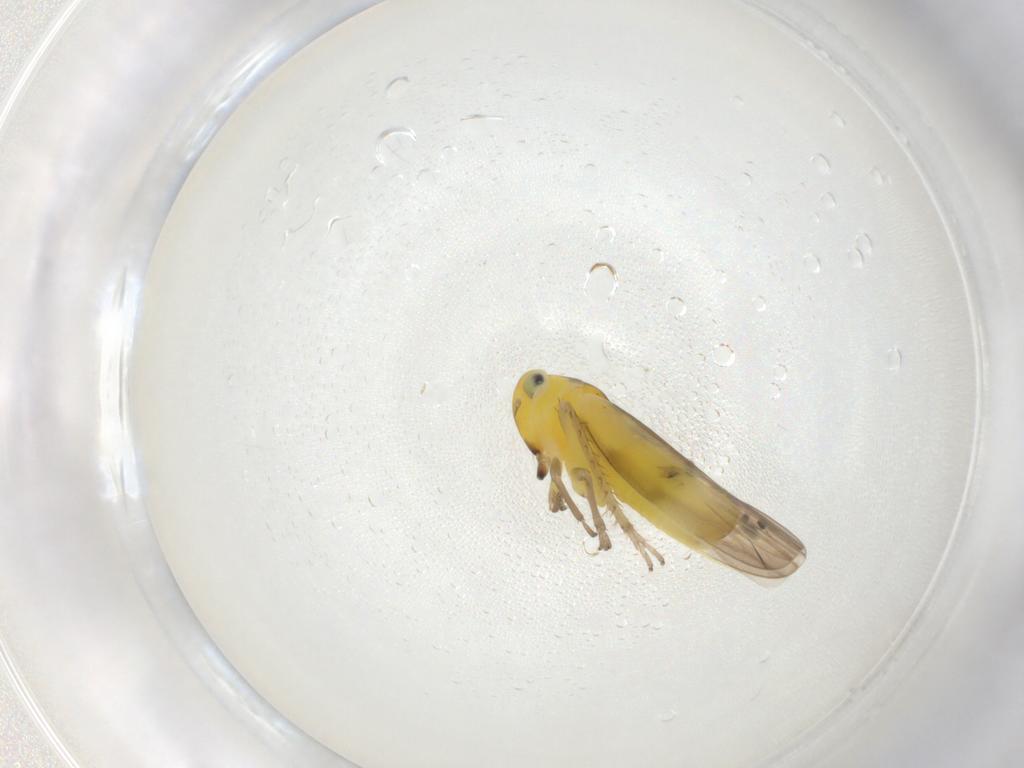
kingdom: Animalia
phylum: Arthropoda
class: Insecta
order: Hemiptera
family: Cicadellidae
